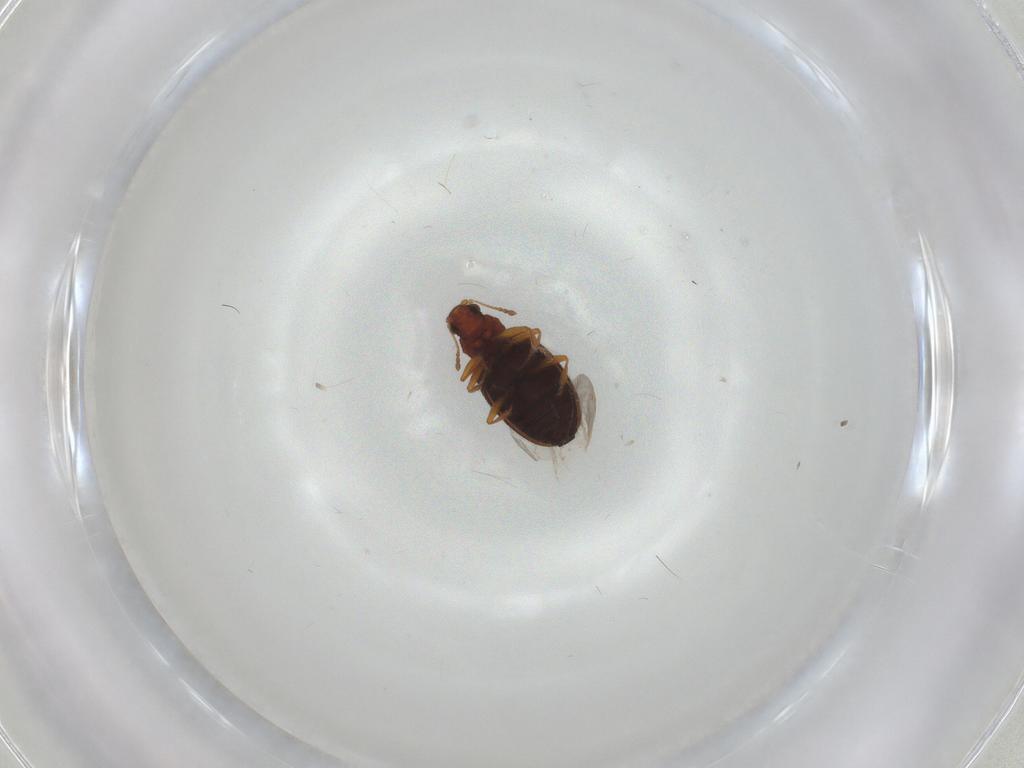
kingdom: Animalia
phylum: Arthropoda
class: Insecta
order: Coleoptera
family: Latridiidae
